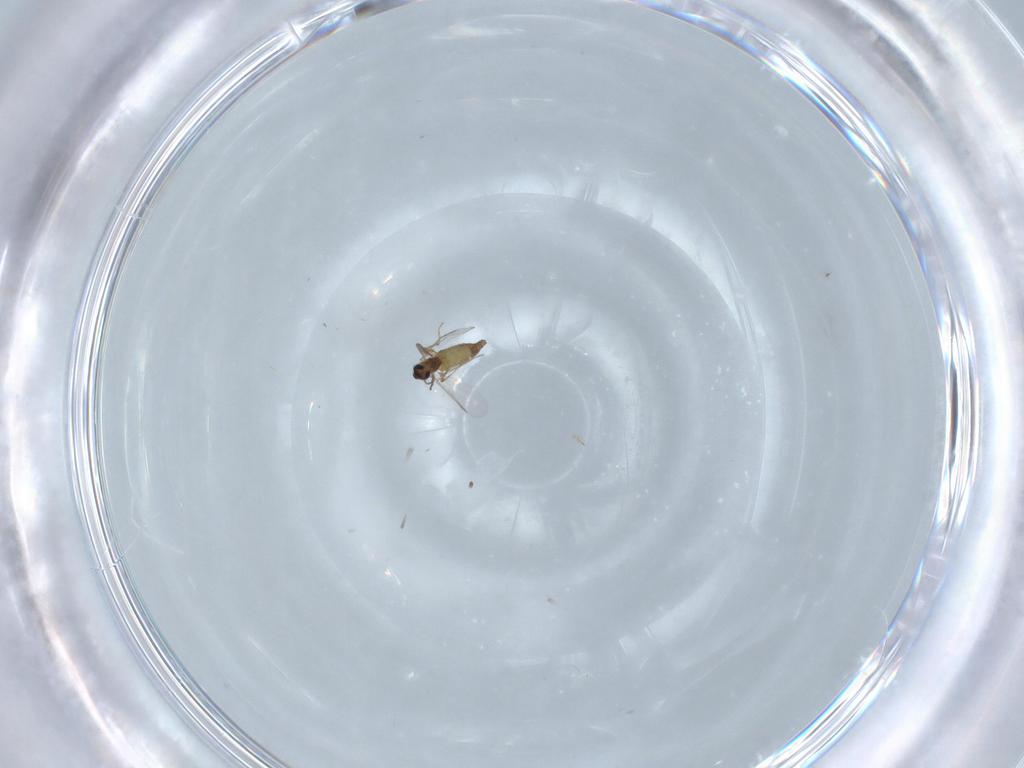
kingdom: Animalia
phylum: Arthropoda
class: Insecta
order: Diptera
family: Chironomidae
